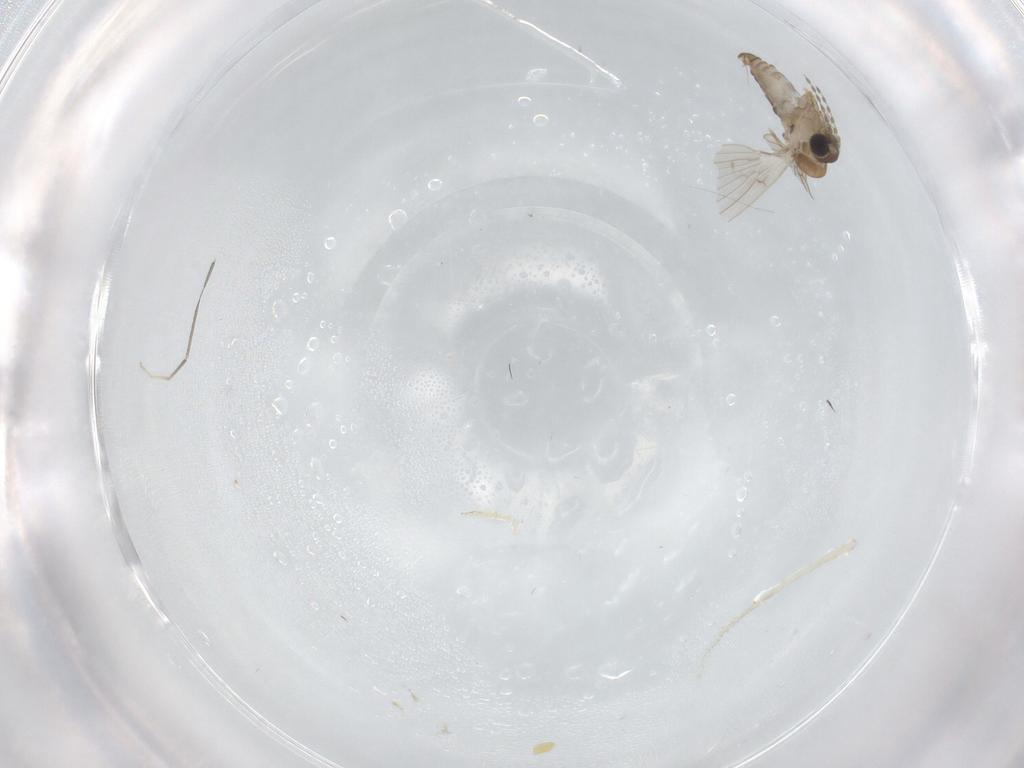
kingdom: Animalia
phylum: Arthropoda
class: Insecta
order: Diptera
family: Cecidomyiidae
